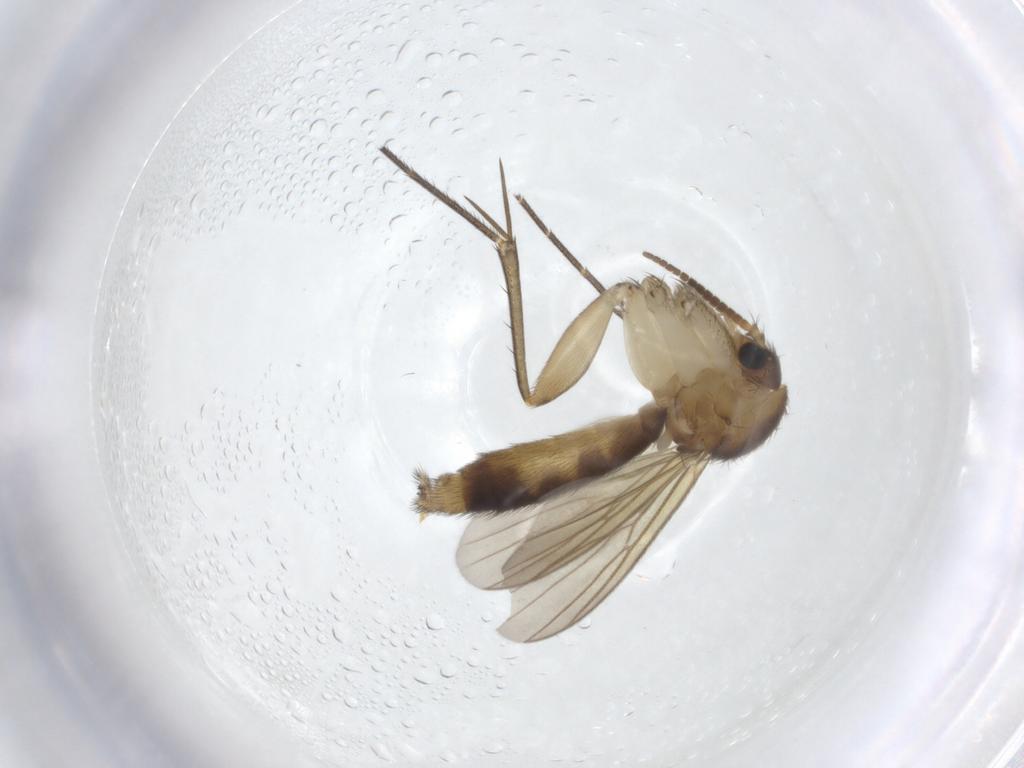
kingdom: Animalia
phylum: Arthropoda
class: Insecta
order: Diptera
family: Mycetophilidae
